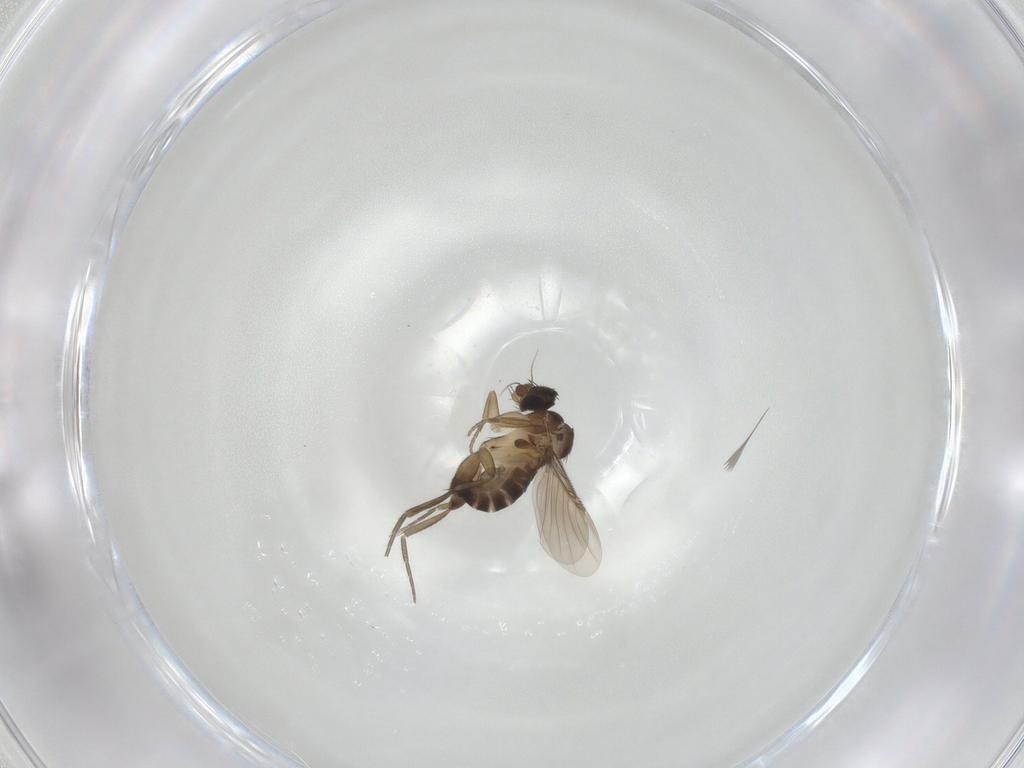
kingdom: Animalia
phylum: Arthropoda
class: Insecta
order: Diptera
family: Phoridae
